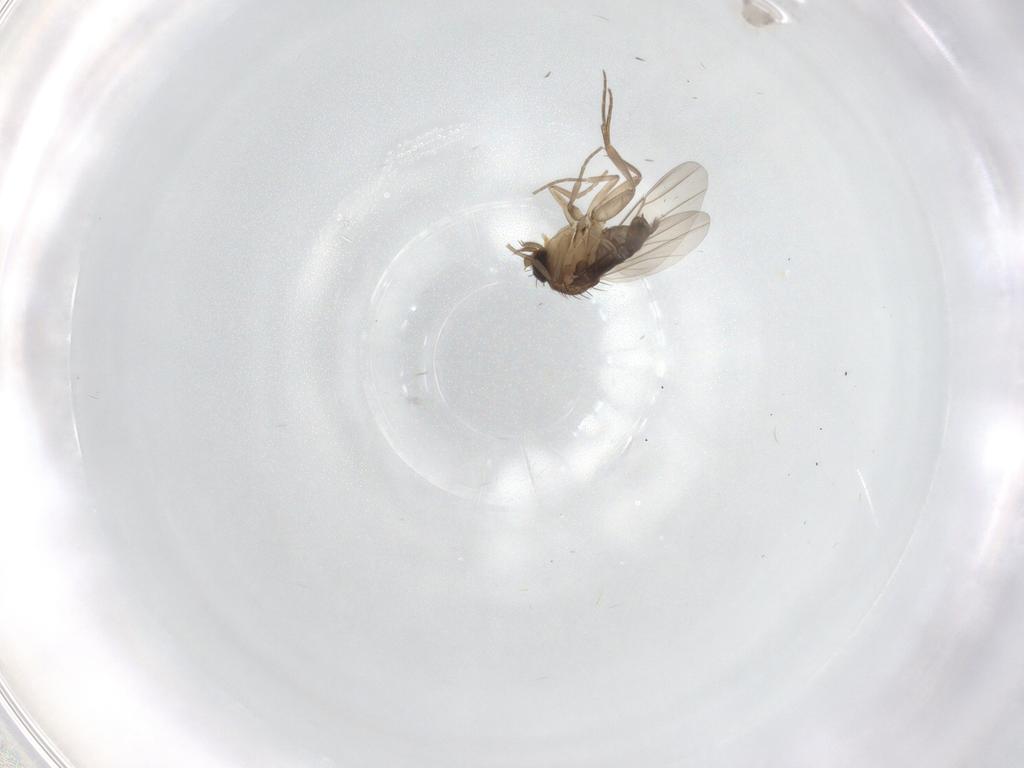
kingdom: Animalia
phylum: Arthropoda
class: Insecta
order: Diptera
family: Phoridae
